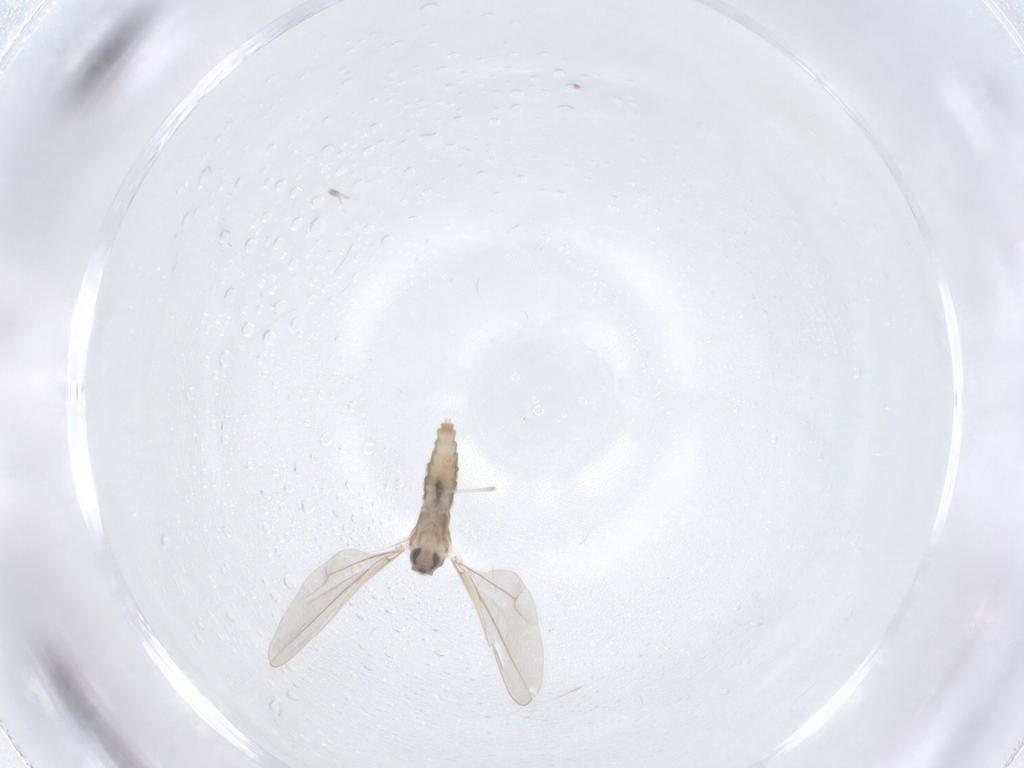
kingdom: Animalia
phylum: Arthropoda
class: Insecta
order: Diptera
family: Cecidomyiidae
